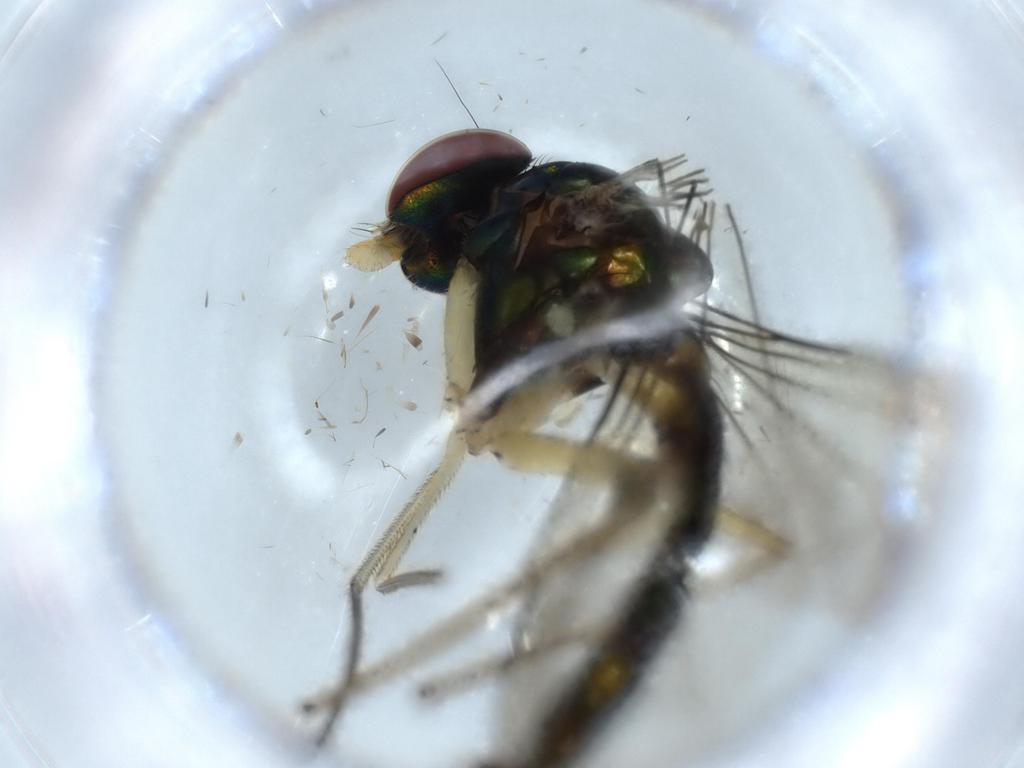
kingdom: Animalia
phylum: Arthropoda
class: Insecta
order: Diptera
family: Dolichopodidae
